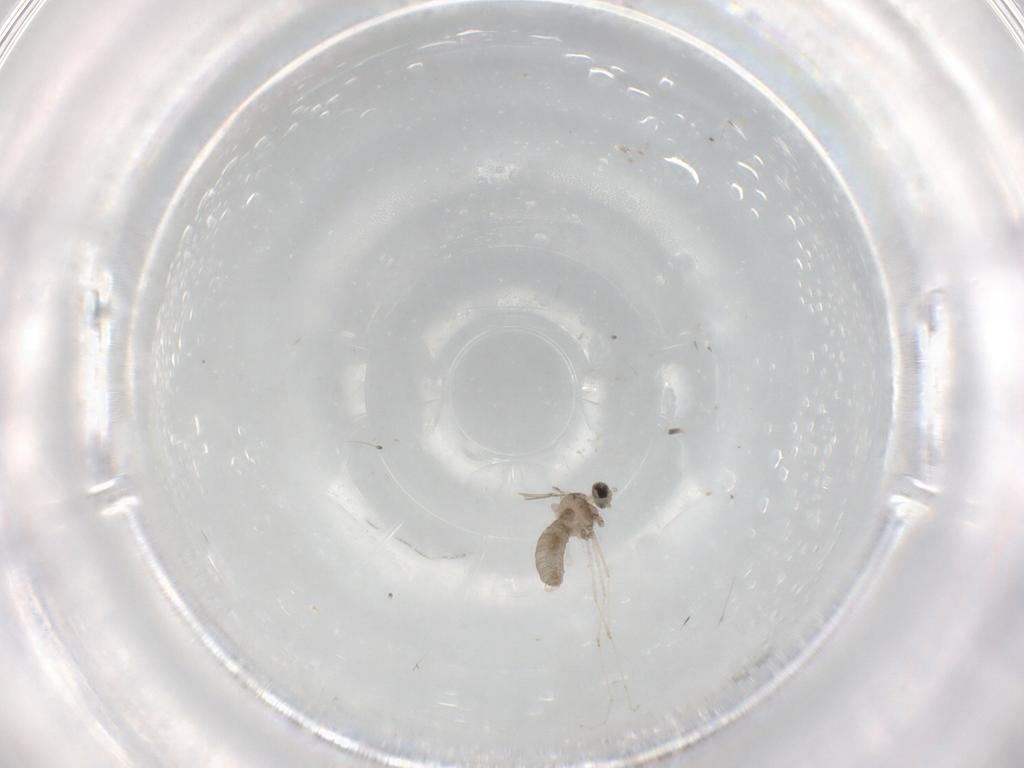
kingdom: Animalia
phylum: Arthropoda
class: Insecta
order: Diptera
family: Cecidomyiidae
